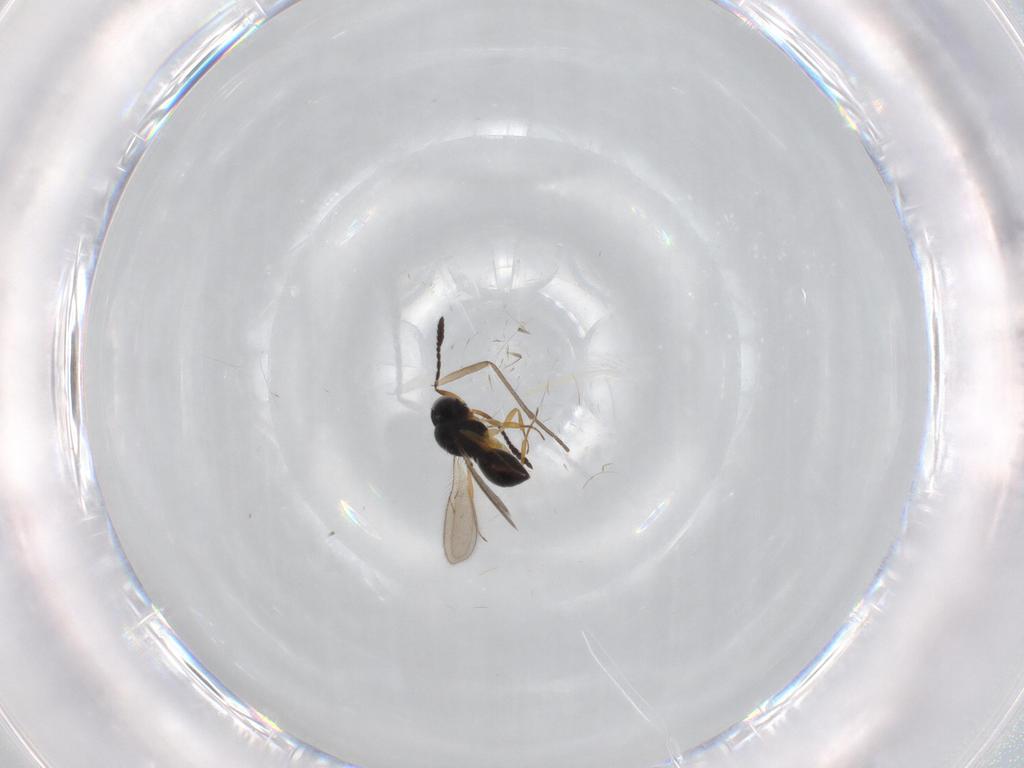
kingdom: Animalia
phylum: Arthropoda
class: Insecta
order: Hymenoptera
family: Scelionidae
